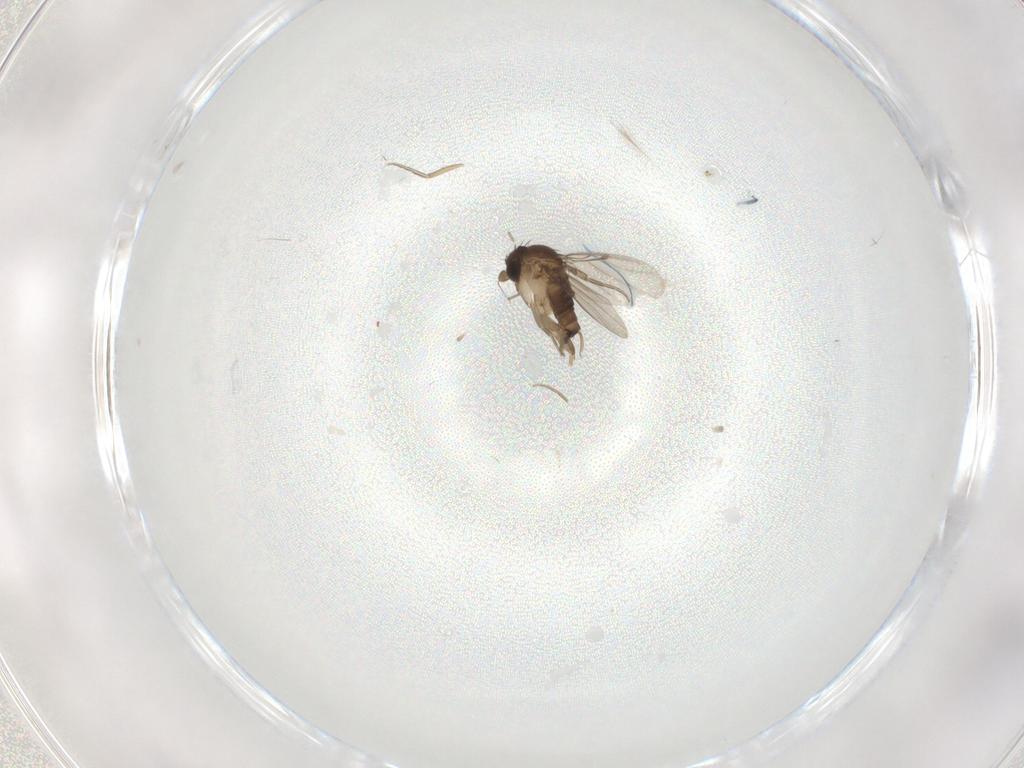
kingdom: Animalia
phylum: Arthropoda
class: Insecta
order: Diptera
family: Phoridae
